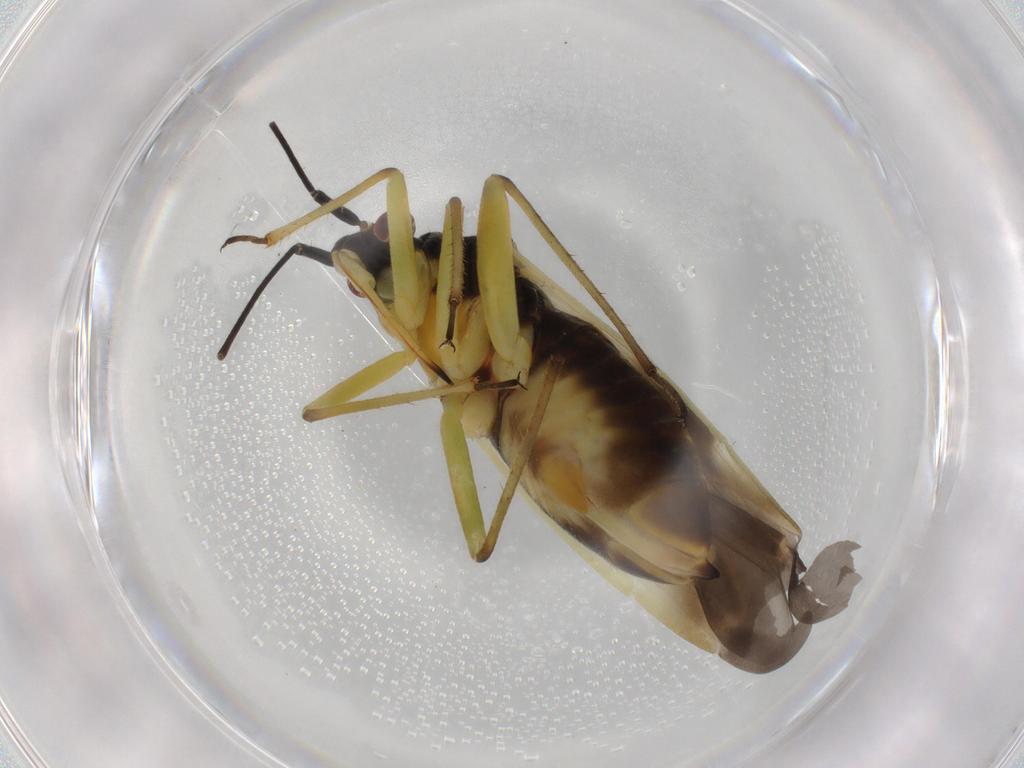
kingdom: Animalia
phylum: Arthropoda
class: Insecta
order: Hemiptera
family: Miridae
